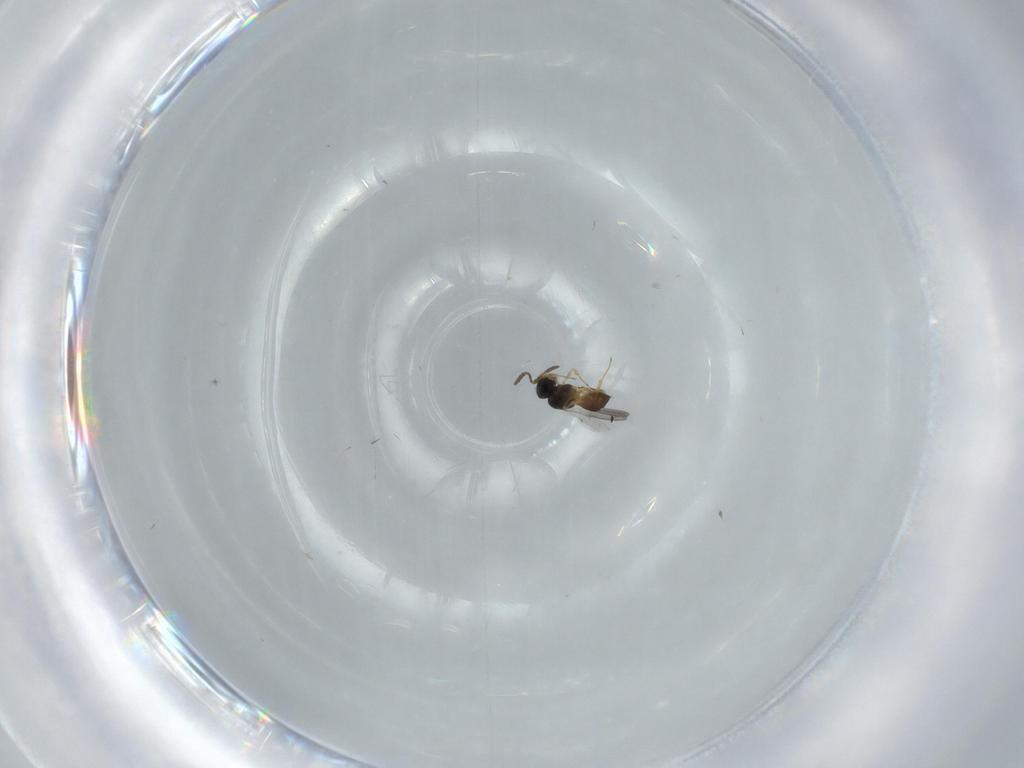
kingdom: Animalia
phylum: Arthropoda
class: Insecta
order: Hymenoptera
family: Scelionidae
